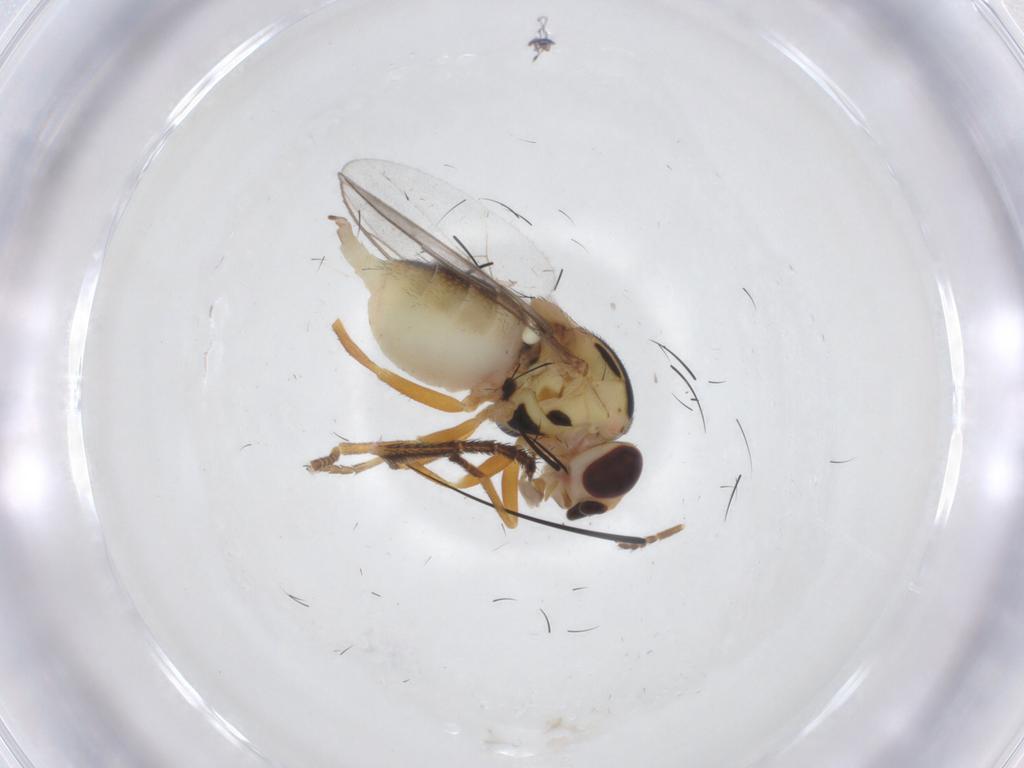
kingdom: Animalia
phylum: Arthropoda
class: Insecta
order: Diptera
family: Chloropidae
